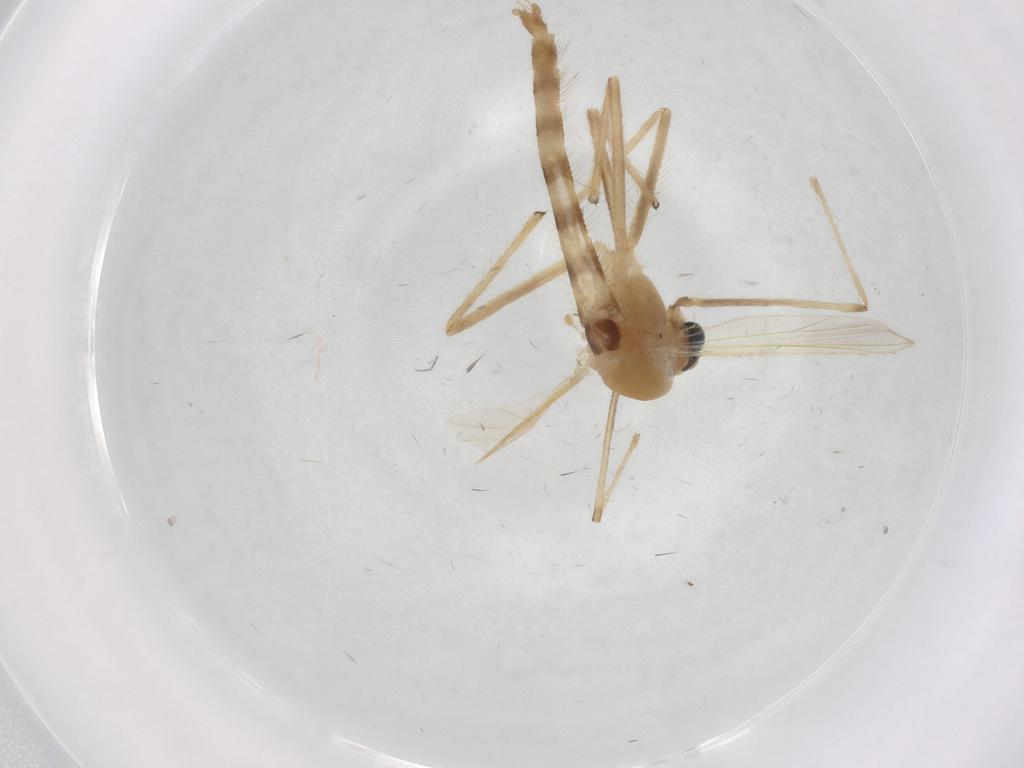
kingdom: Animalia
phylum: Arthropoda
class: Insecta
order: Diptera
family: Chironomidae
